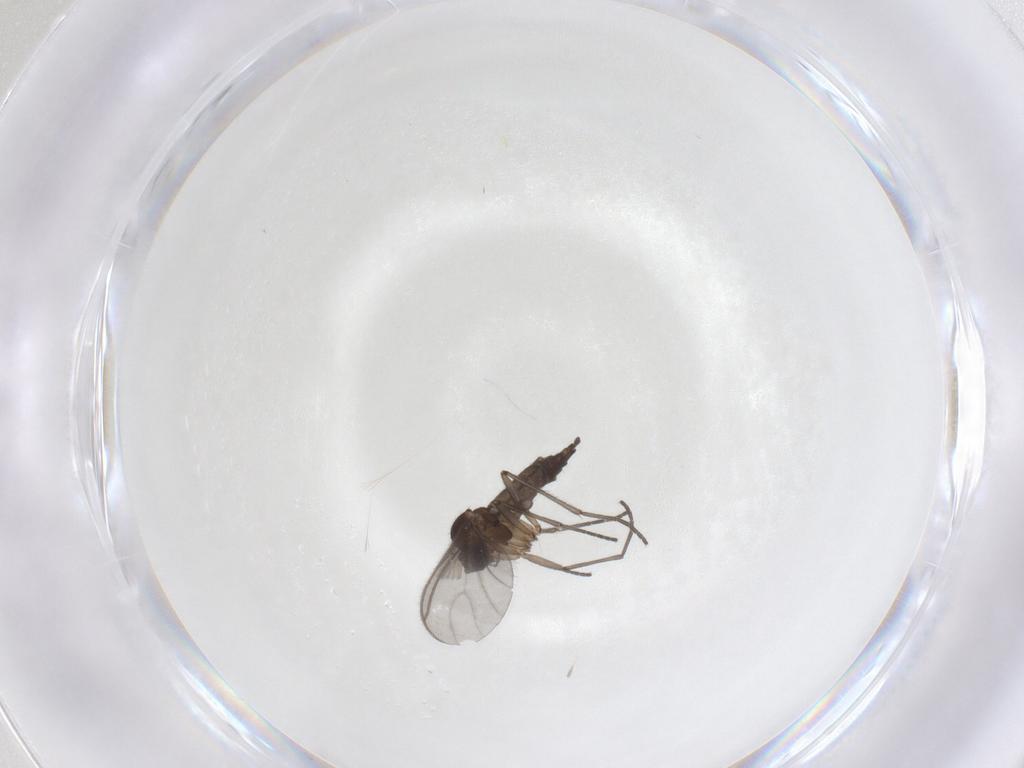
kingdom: Animalia
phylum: Arthropoda
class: Insecta
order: Diptera
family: Sciaridae
